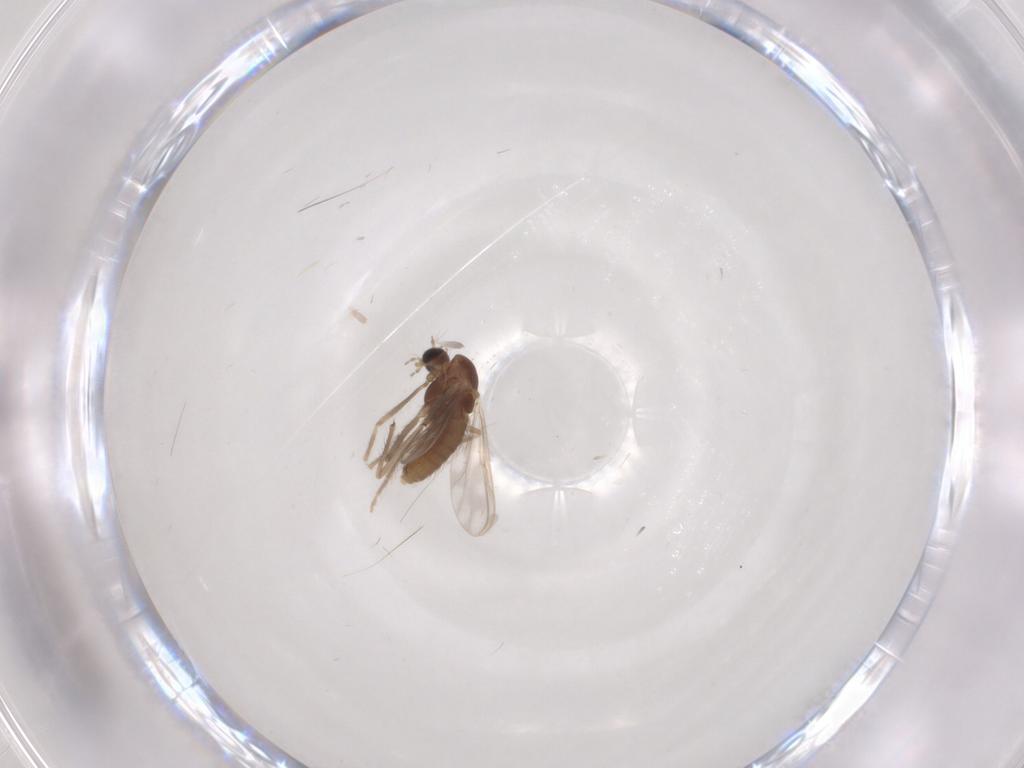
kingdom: Animalia
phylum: Arthropoda
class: Insecta
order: Diptera
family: Chironomidae
